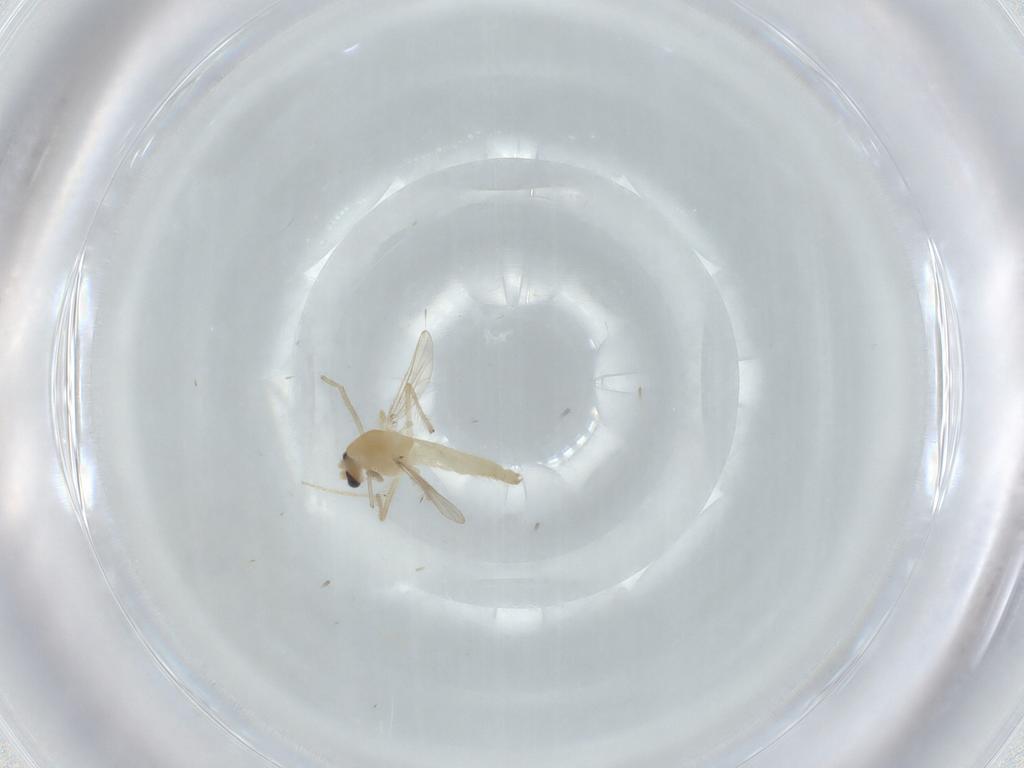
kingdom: Animalia
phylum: Arthropoda
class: Insecta
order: Diptera
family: Chironomidae
